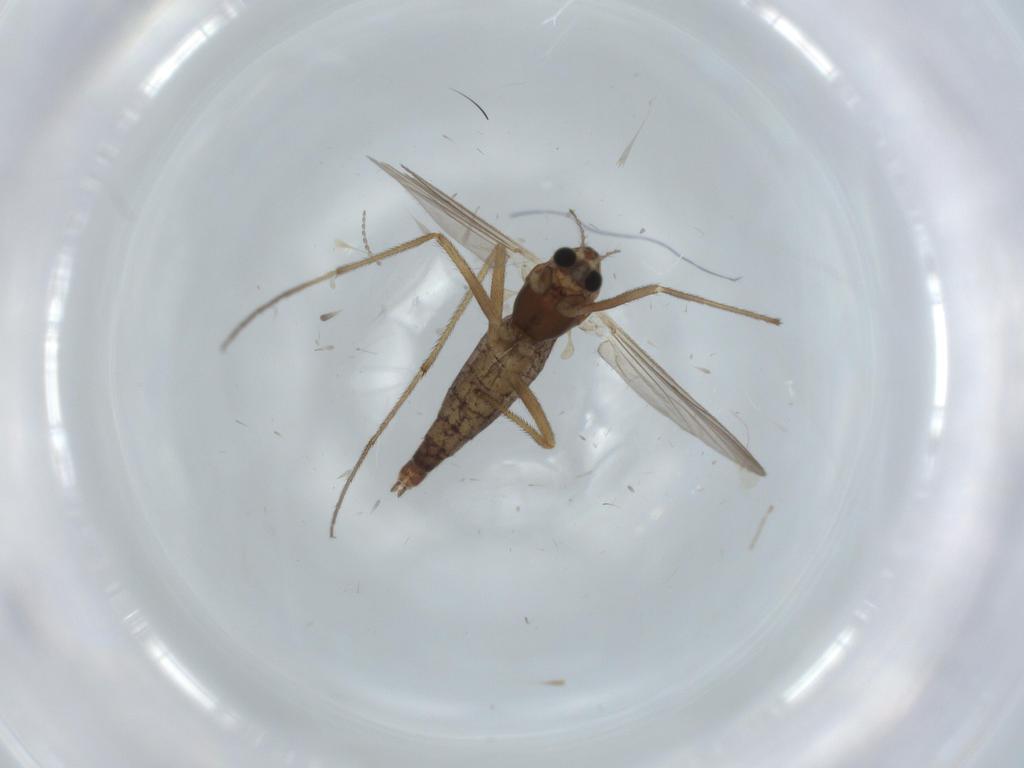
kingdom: Animalia
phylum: Arthropoda
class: Insecta
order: Diptera
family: Chironomidae
